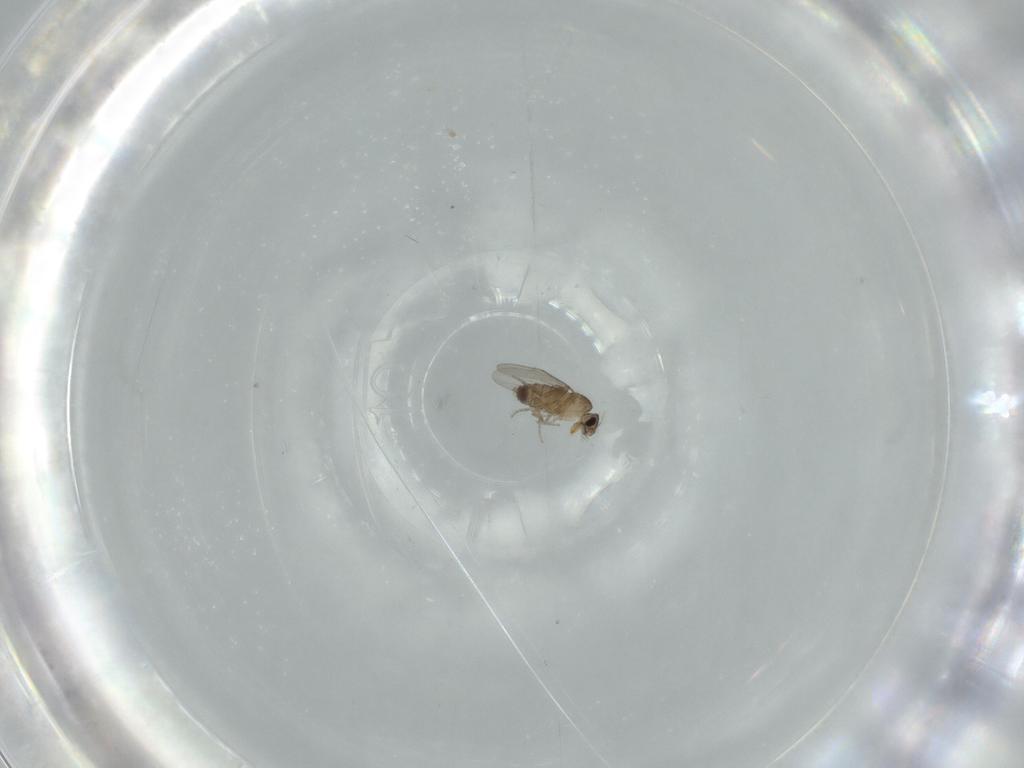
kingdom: Animalia
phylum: Arthropoda
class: Insecta
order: Diptera
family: Phoridae
